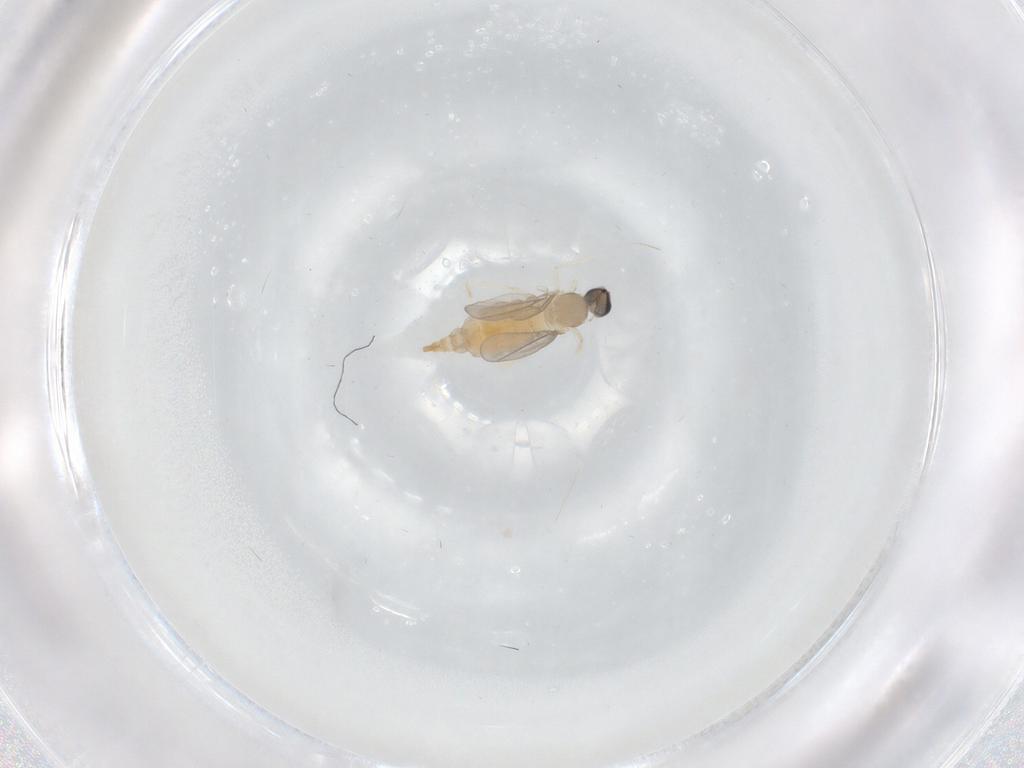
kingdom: Animalia
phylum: Arthropoda
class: Insecta
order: Diptera
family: Cecidomyiidae
